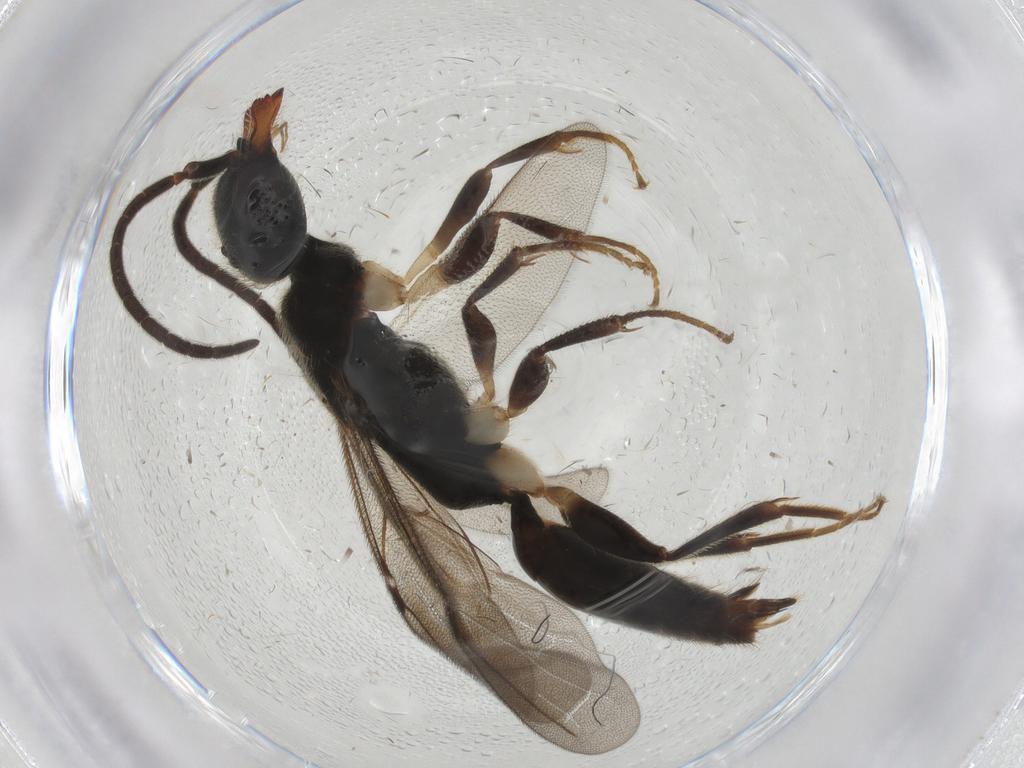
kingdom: Animalia
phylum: Arthropoda
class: Insecta
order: Hymenoptera
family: Bethylidae
